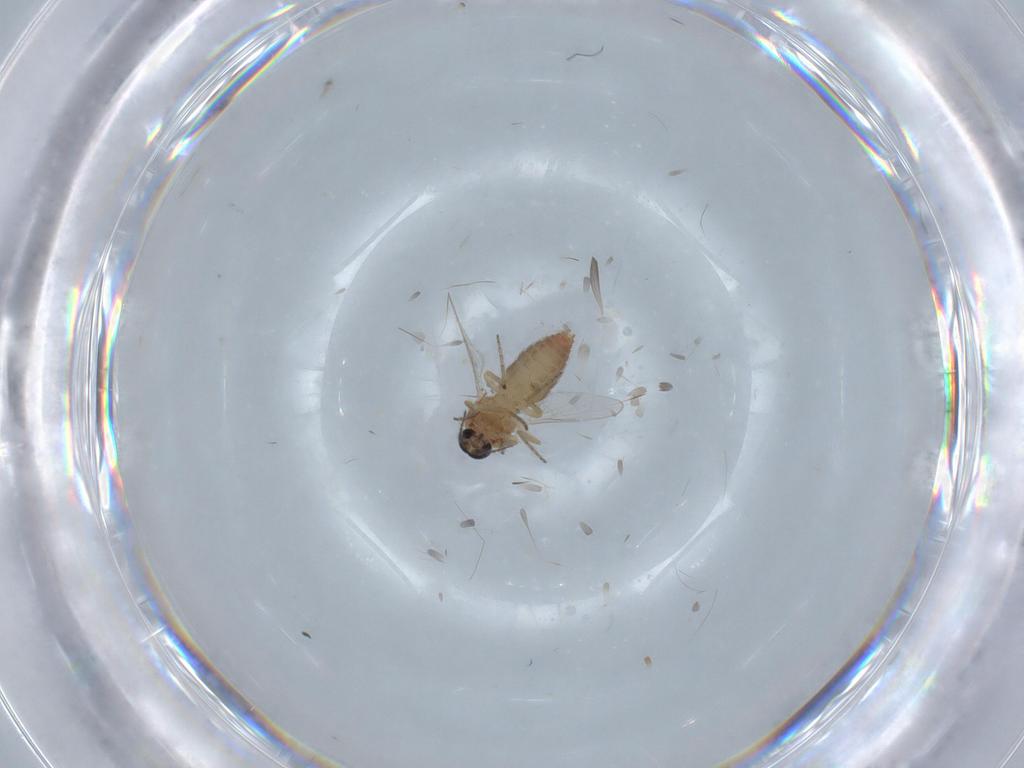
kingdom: Animalia
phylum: Arthropoda
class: Insecta
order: Diptera
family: Ceratopogonidae
